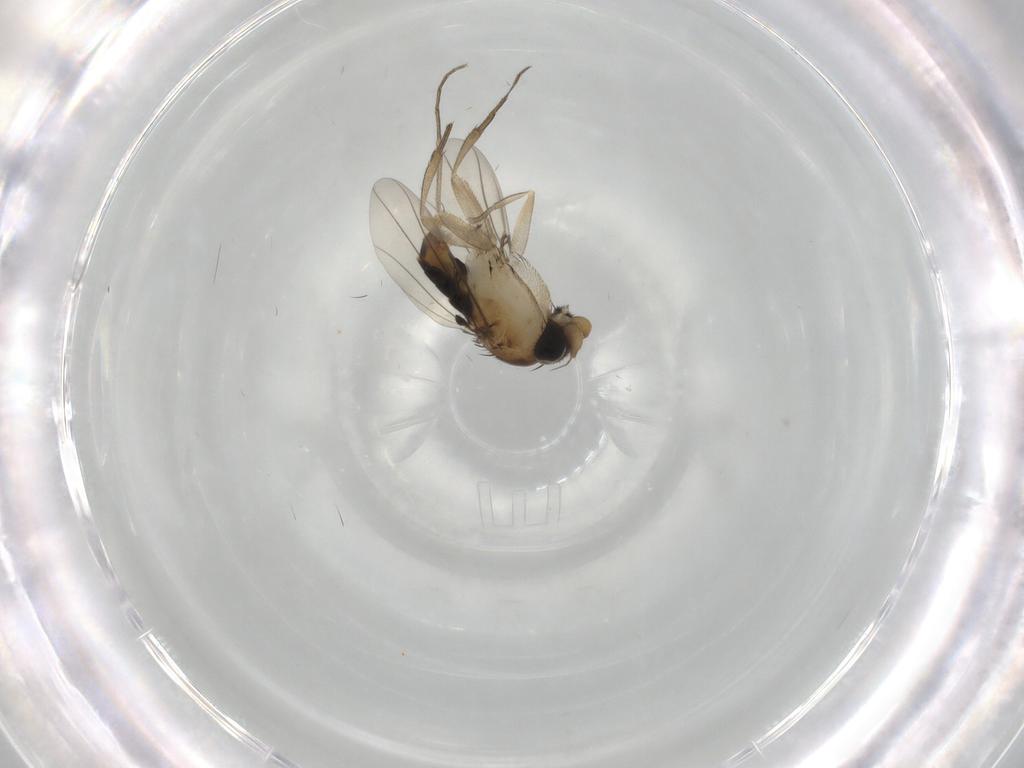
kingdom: Animalia
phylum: Arthropoda
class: Insecta
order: Diptera
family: Phoridae
